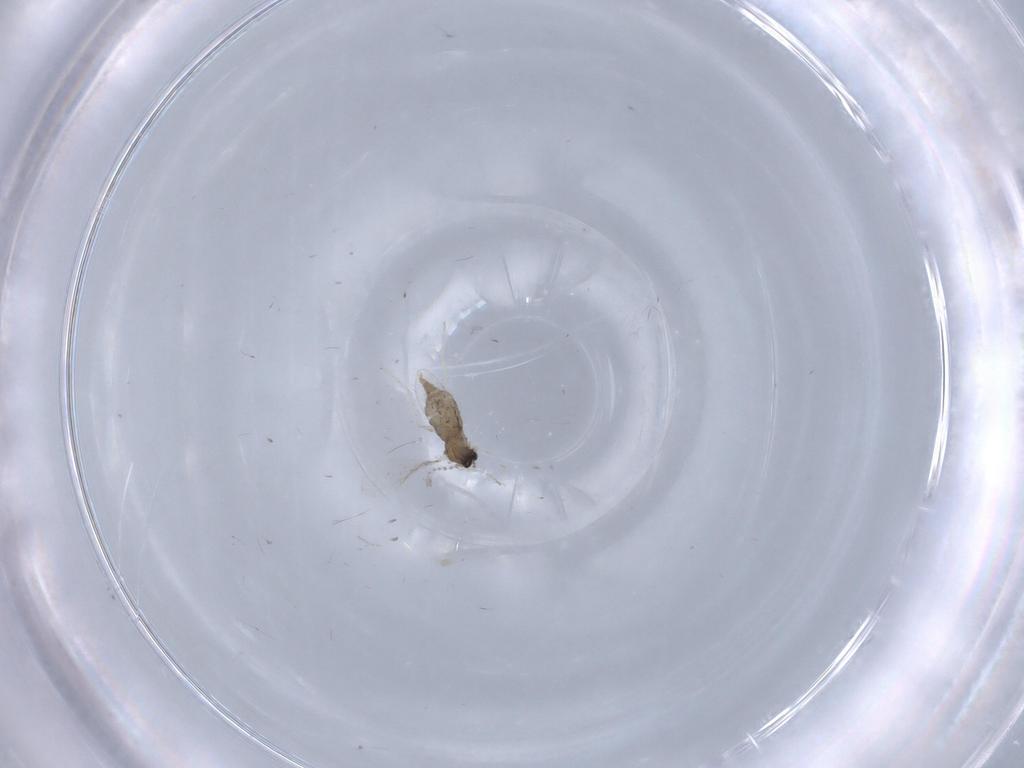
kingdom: Animalia
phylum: Arthropoda
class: Insecta
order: Diptera
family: Cecidomyiidae
